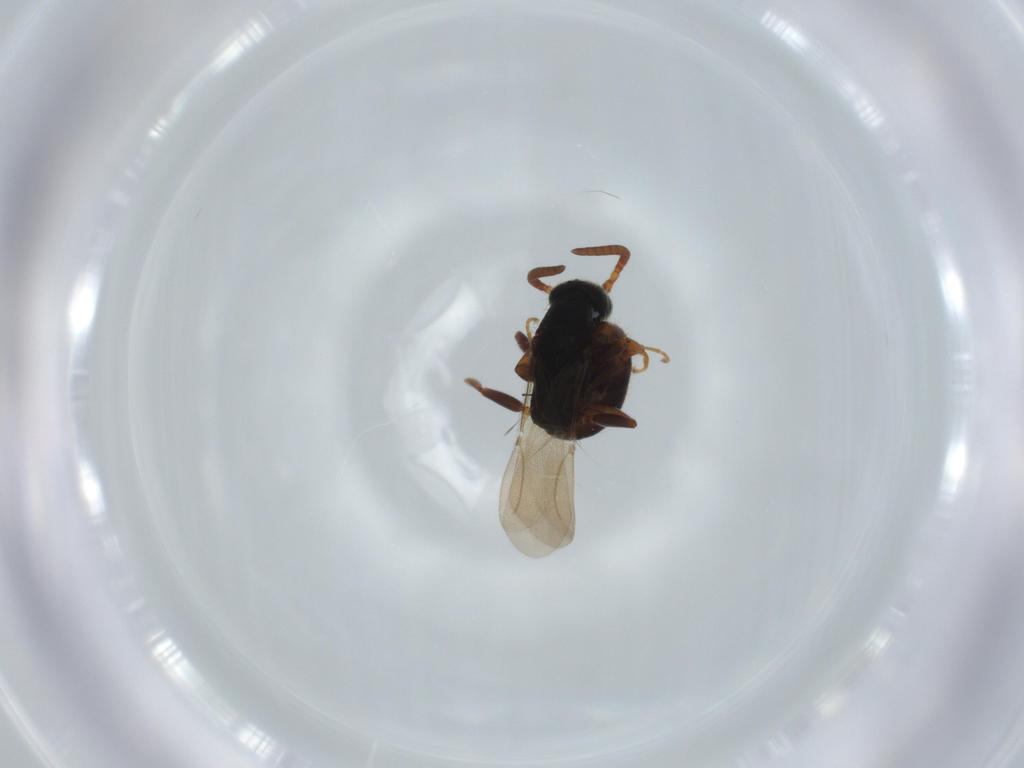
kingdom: Animalia
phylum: Arthropoda
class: Insecta
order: Hymenoptera
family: Bethylidae
